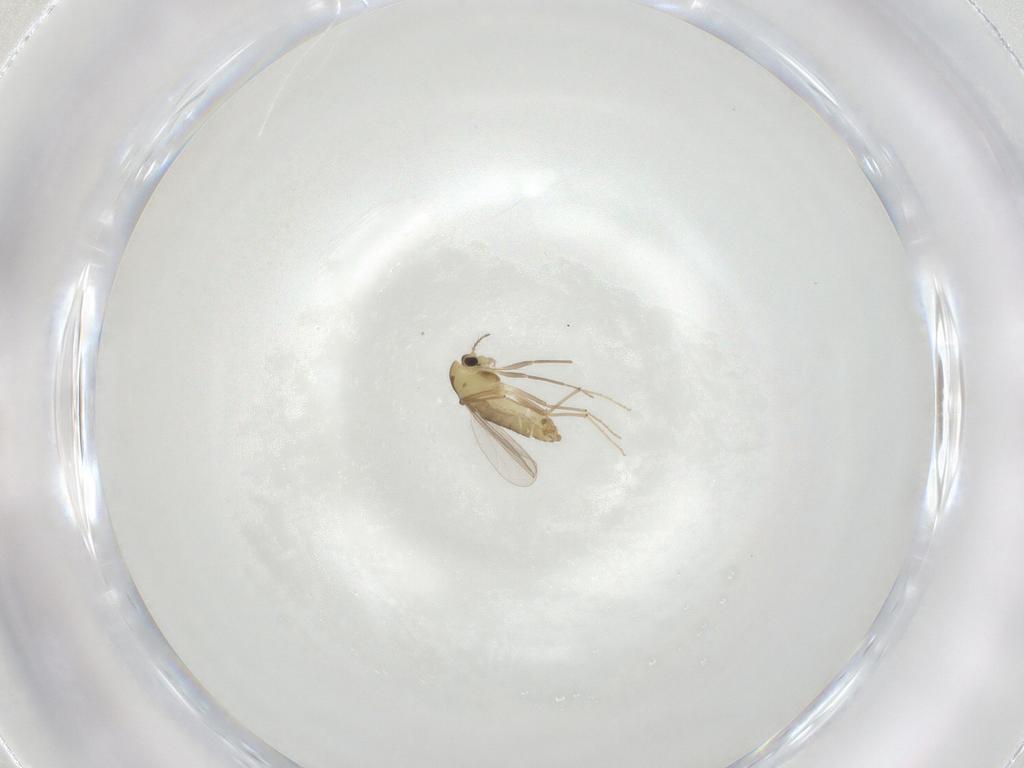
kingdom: Animalia
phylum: Arthropoda
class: Insecta
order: Diptera
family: Chironomidae
